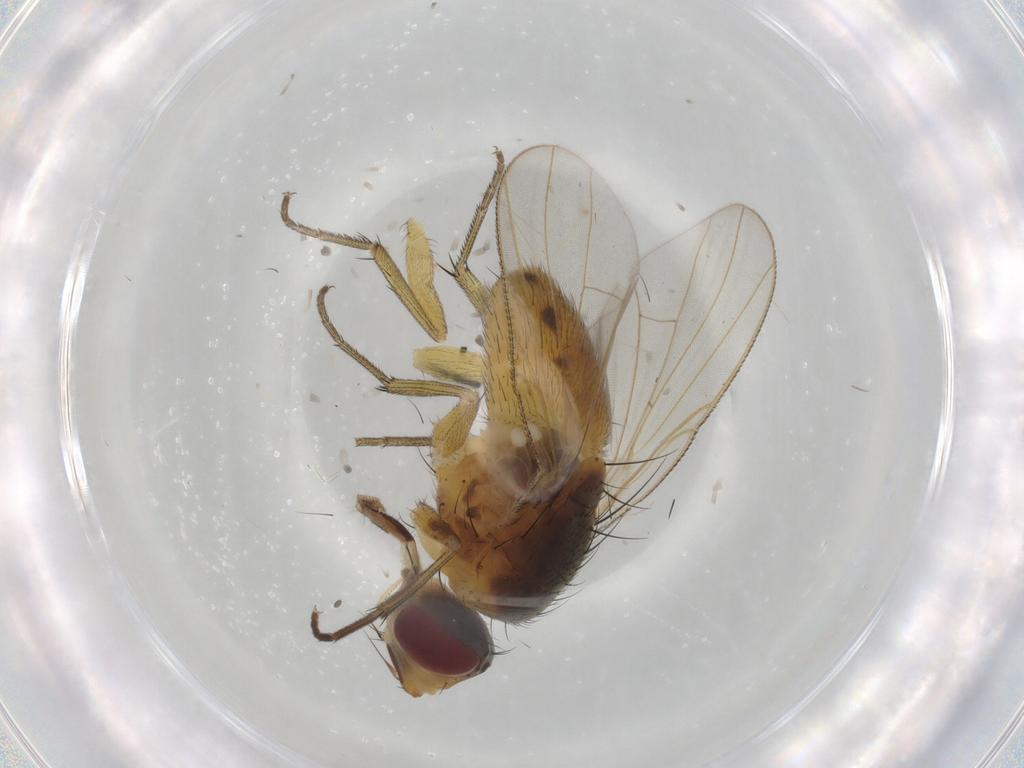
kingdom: Animalia
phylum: Arthropoda
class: Insecta
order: Diptera
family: Muscidae
